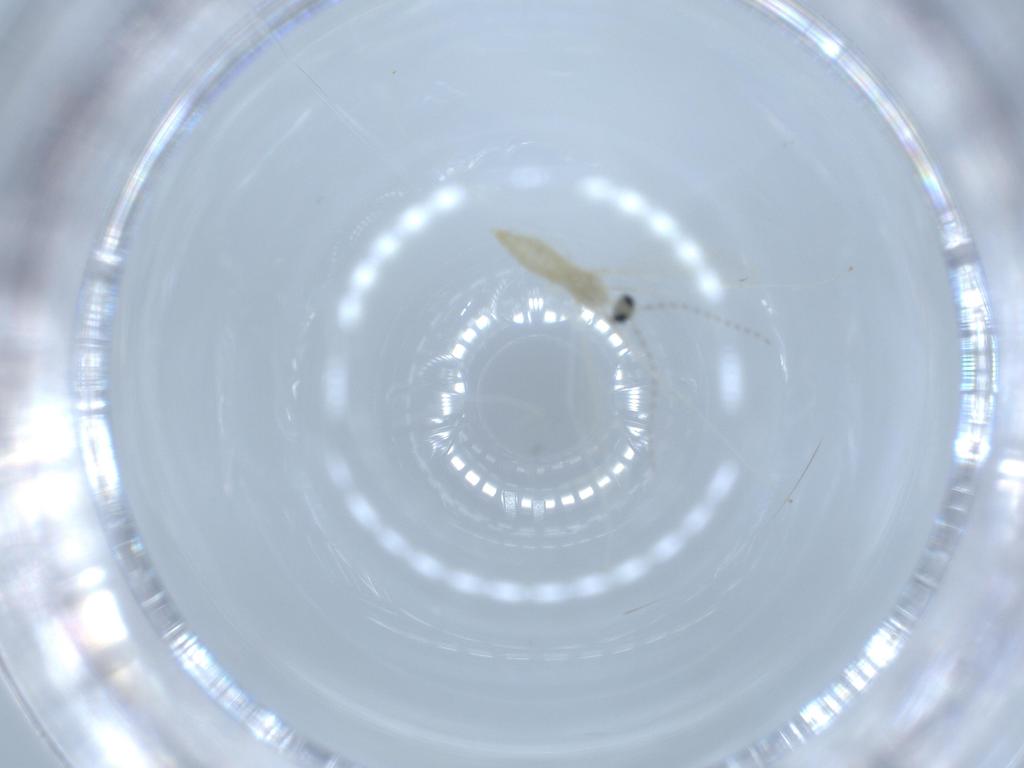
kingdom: Animalia
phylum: Arthropoda
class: Insecta
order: Diptera
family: Cecidomyiidae
